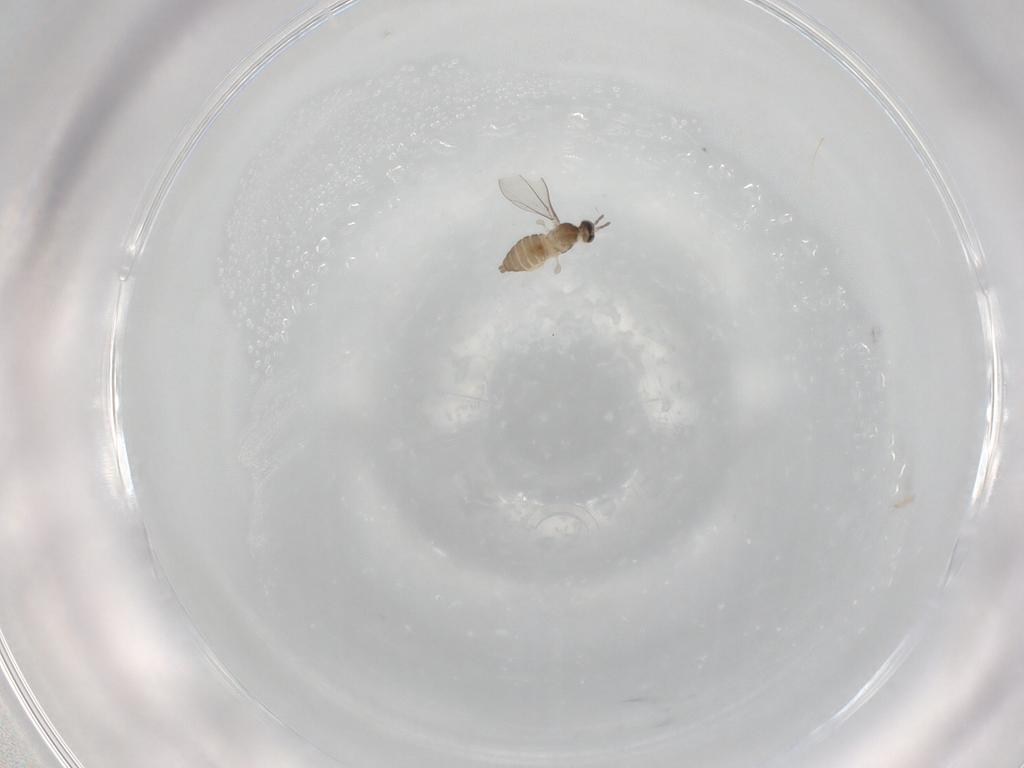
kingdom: Animalia
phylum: Arthropoda
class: Insecta
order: Diptera
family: Cecidomyiidae
